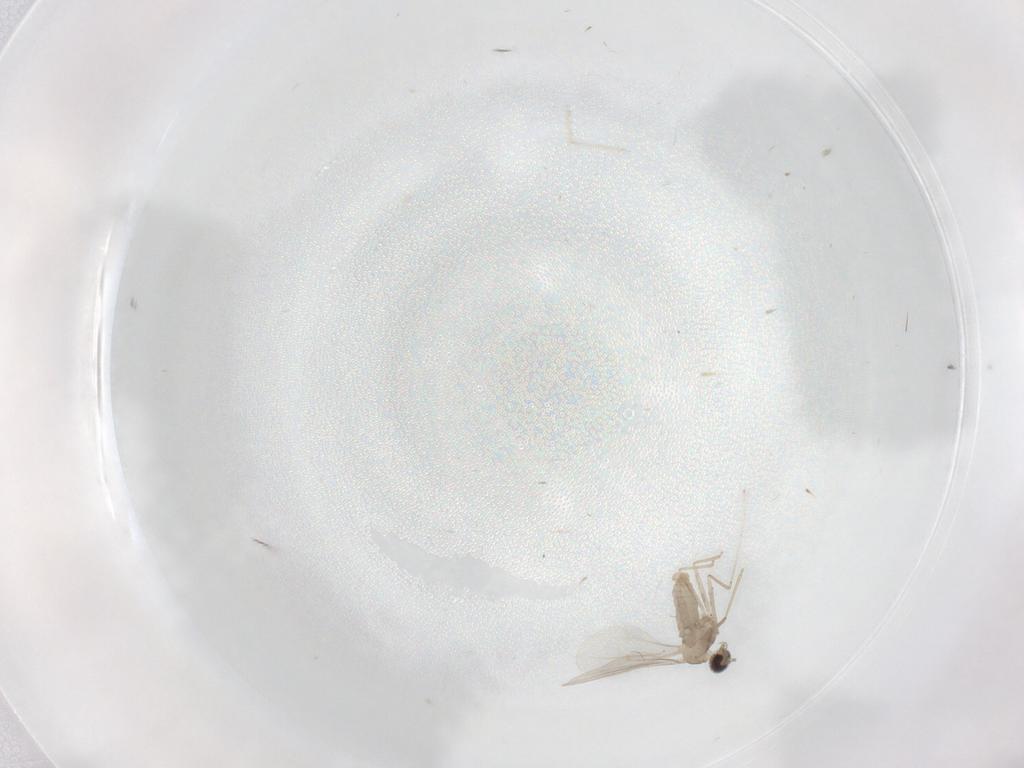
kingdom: Animalia
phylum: Arthropoda
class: Insecta
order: Diptera
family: Cecidomyiidae
